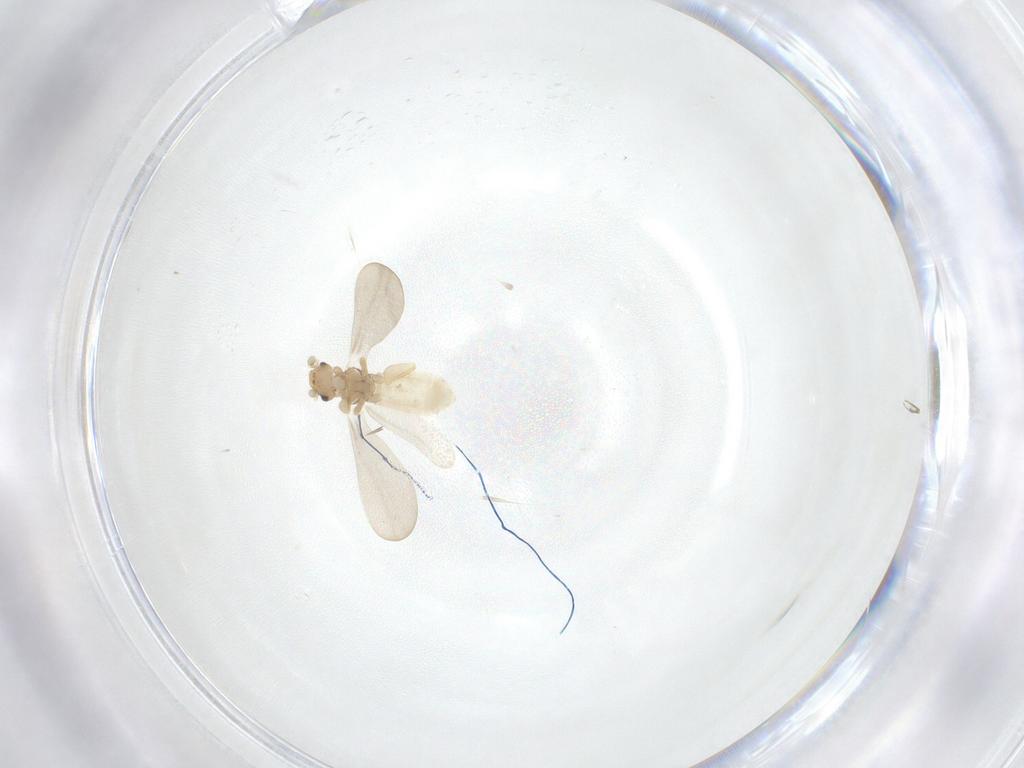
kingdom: Animalia
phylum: Arthropoda
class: Insecta
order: Psocodea
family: Liposcelididae
